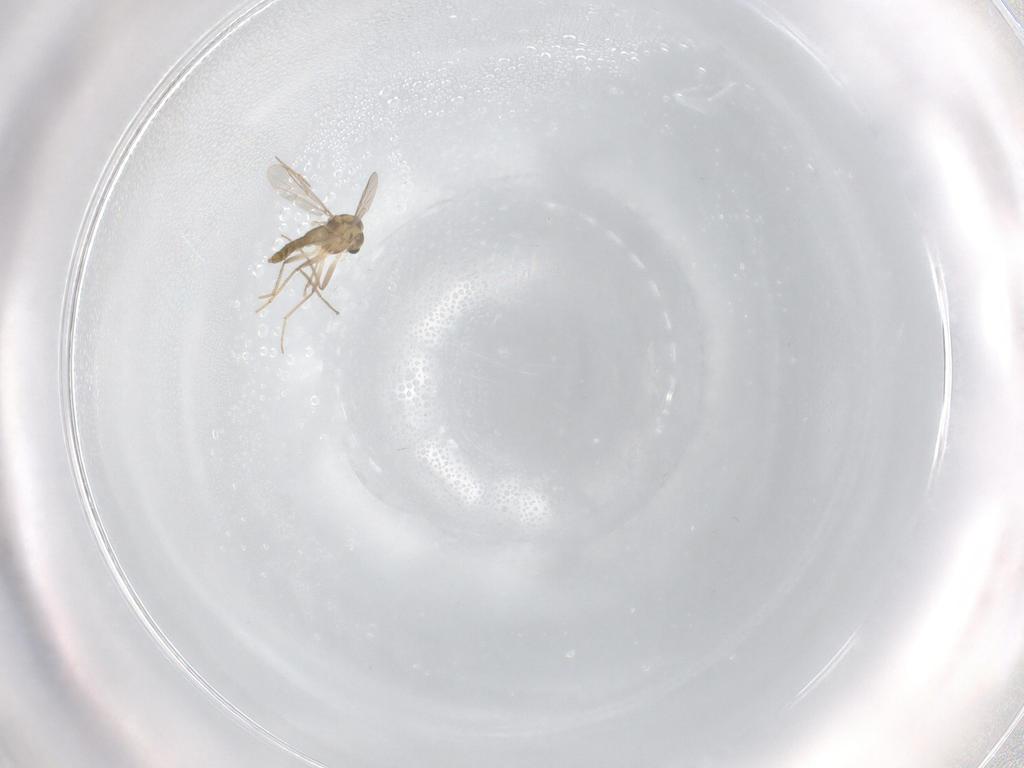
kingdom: Animalia
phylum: Arthropoda
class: Insecta
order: Diptera
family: Chironomidae
